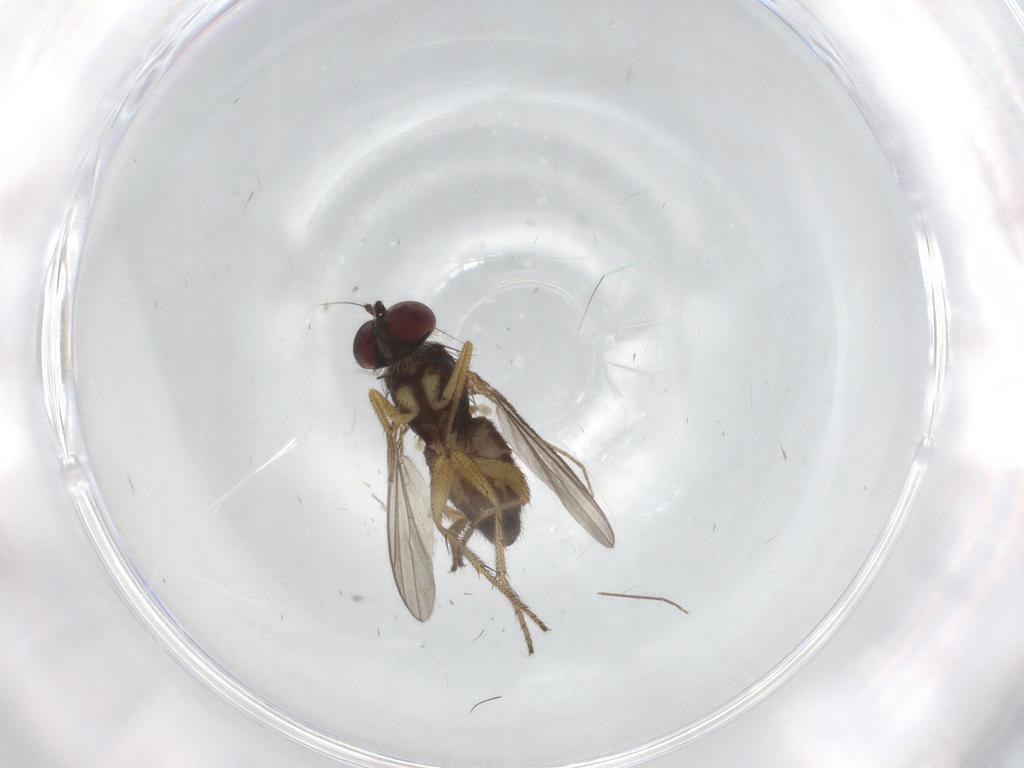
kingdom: Animalia
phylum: Arthropoda
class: Insecta
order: Diptera
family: Dolichopodidae
